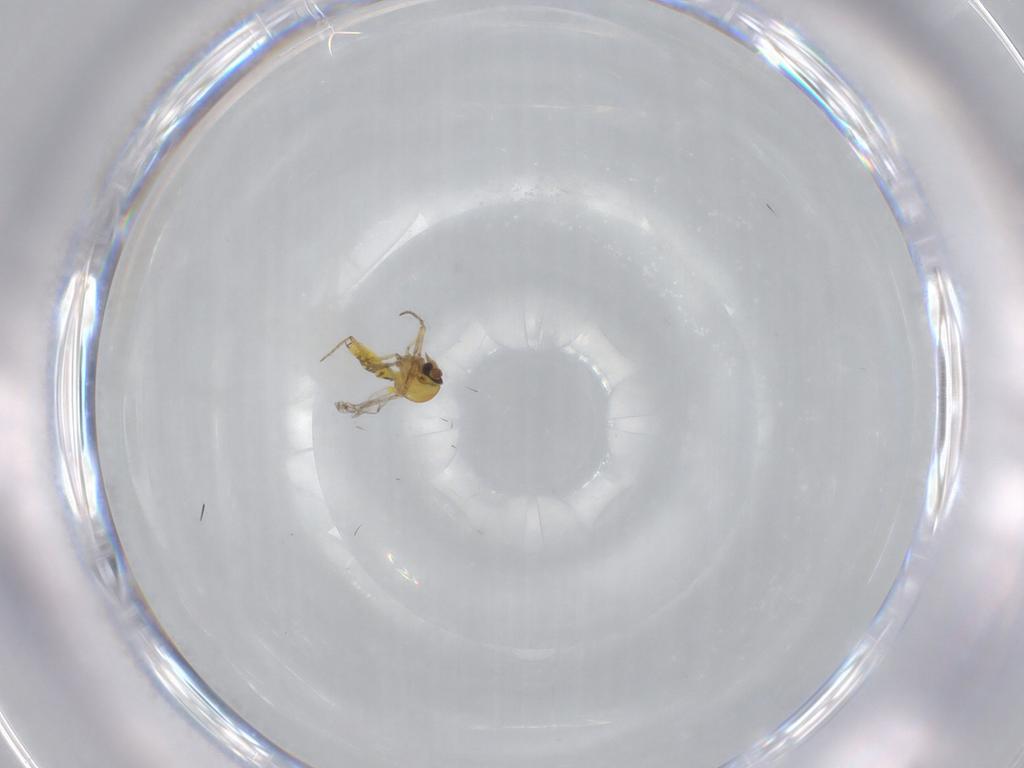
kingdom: Animalia
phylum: Arthropoda
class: Insecta
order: Diptera
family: Ceratopogonidae
